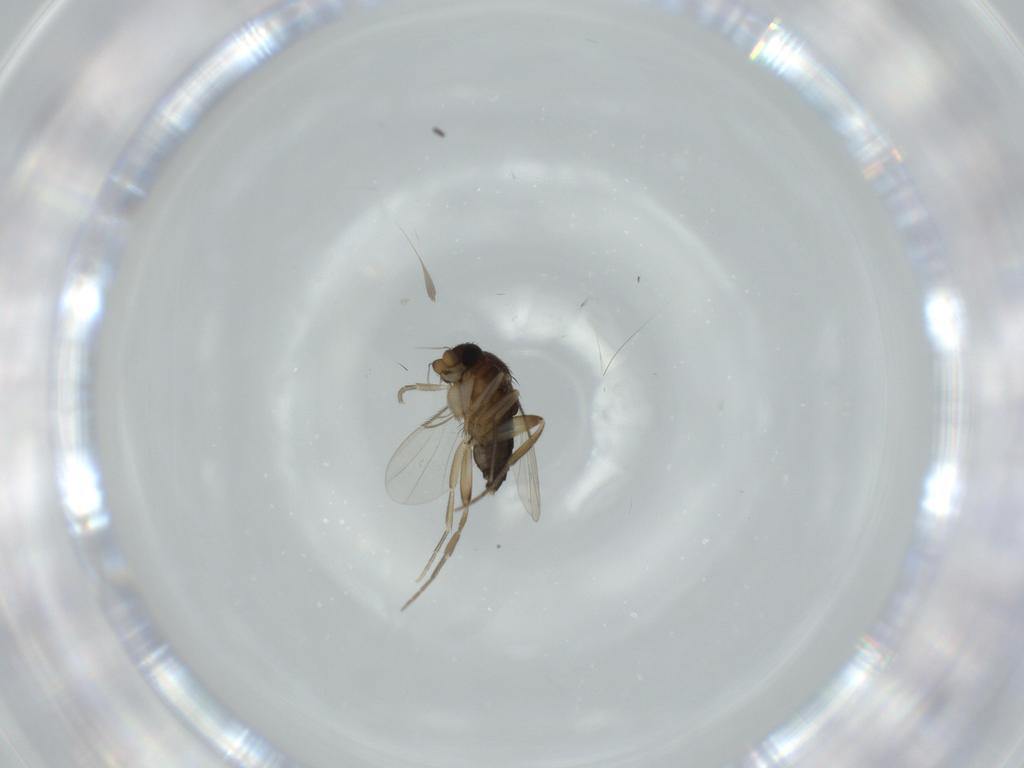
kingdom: Animalia
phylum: Arthropoda
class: Insecta
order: Diptera
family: Phoridae
